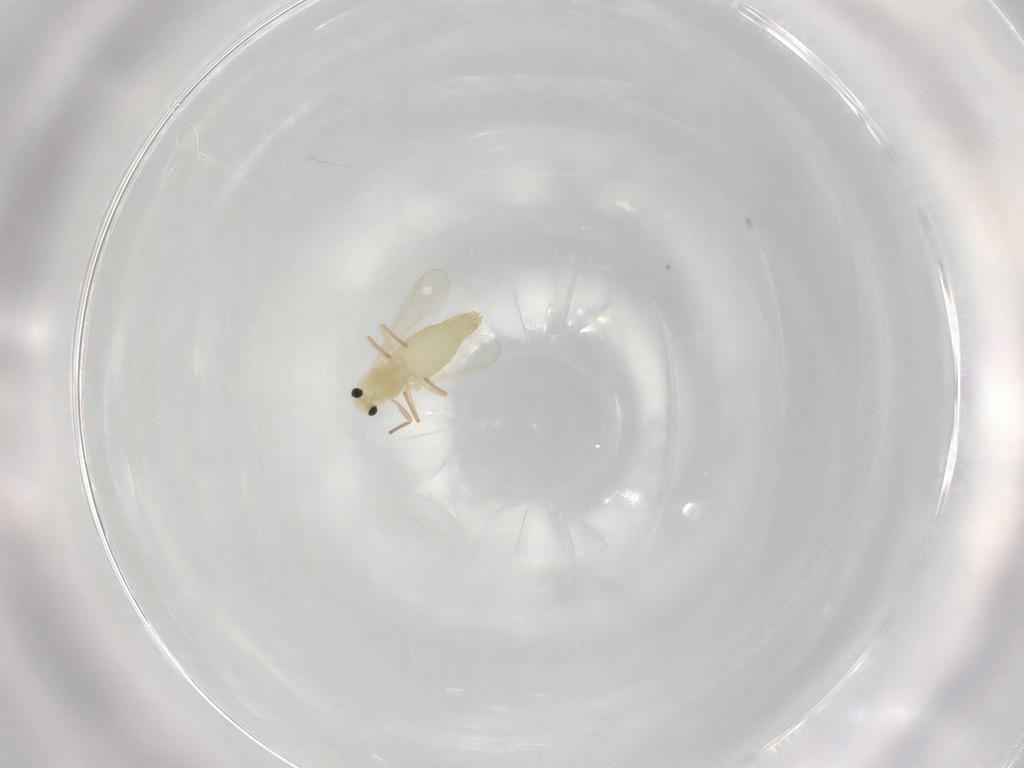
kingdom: Animalia
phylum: Arthropoda
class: Insecta
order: Diptera
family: Chironomidae
